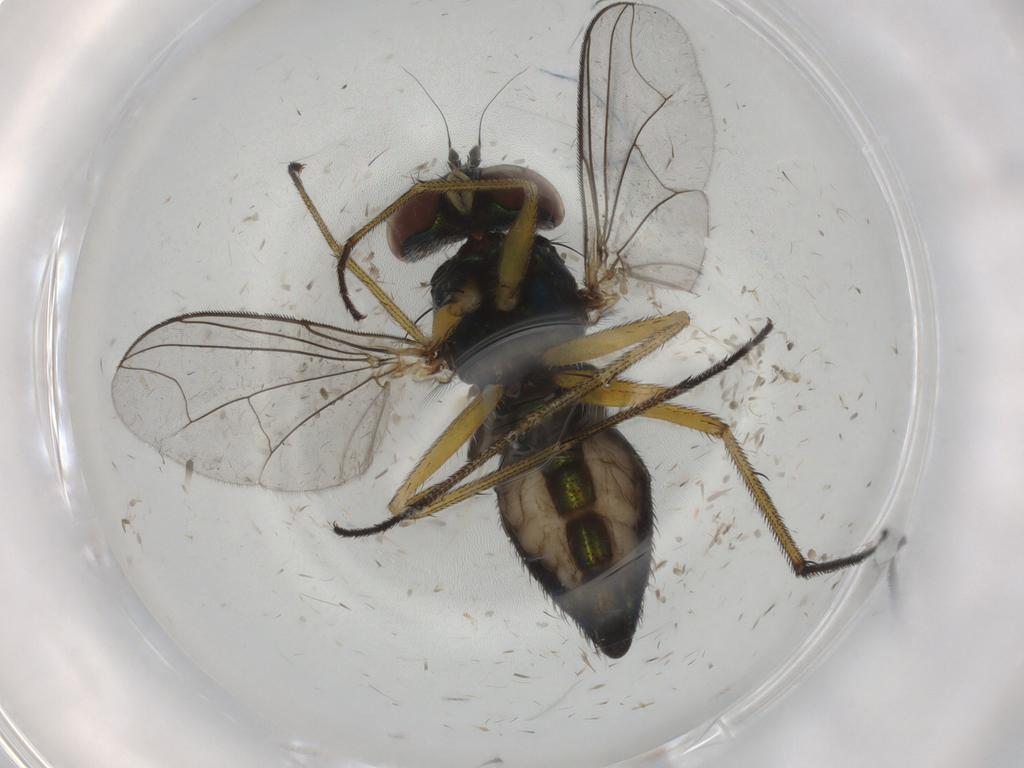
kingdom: Animalia
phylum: Arthropoda
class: Insecta
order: Diptera
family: Dolichopodidae
